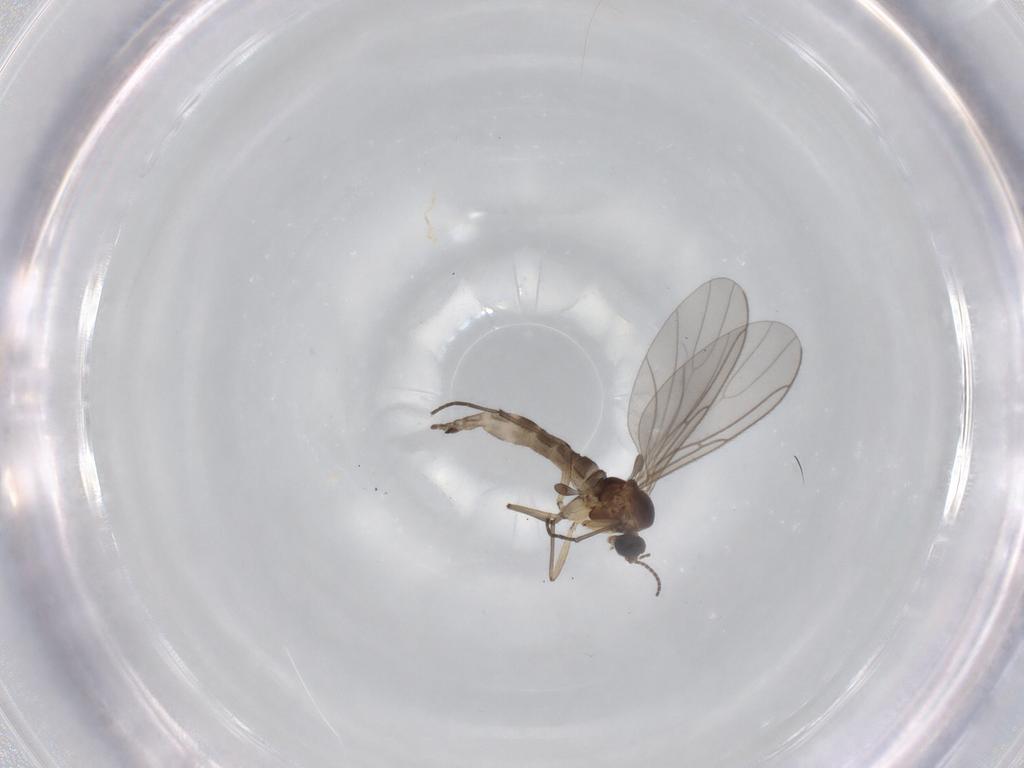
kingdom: Animalia
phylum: Arthropoda
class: Insecta
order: Diptera
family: Sciaridae
